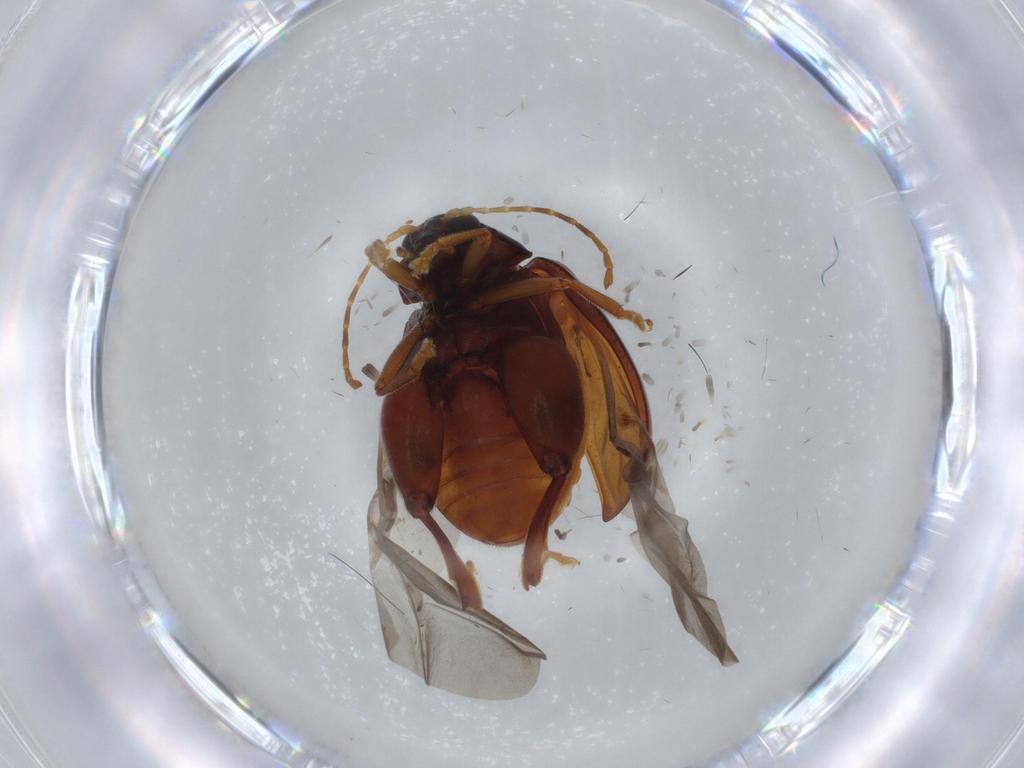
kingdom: Animalia
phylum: Arthropoda
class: Insecta
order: Coleoptera
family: Chrysomelidae
